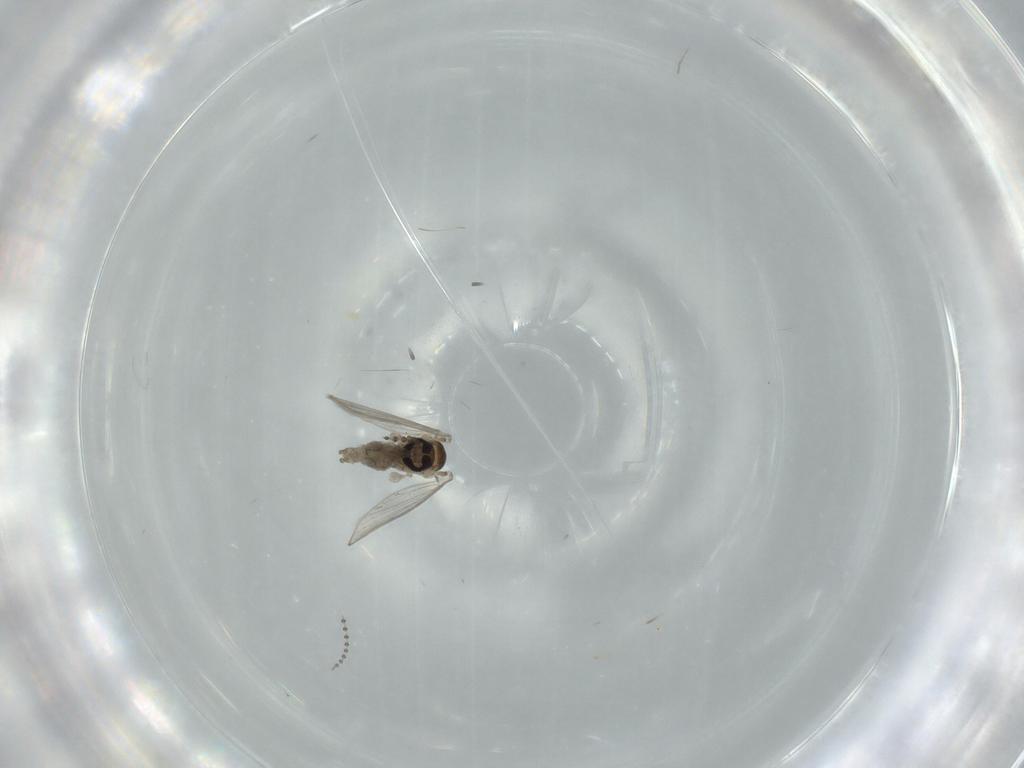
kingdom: Animalia
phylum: Arthropoda
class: Insecta
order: Diptera
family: Psychodidae
